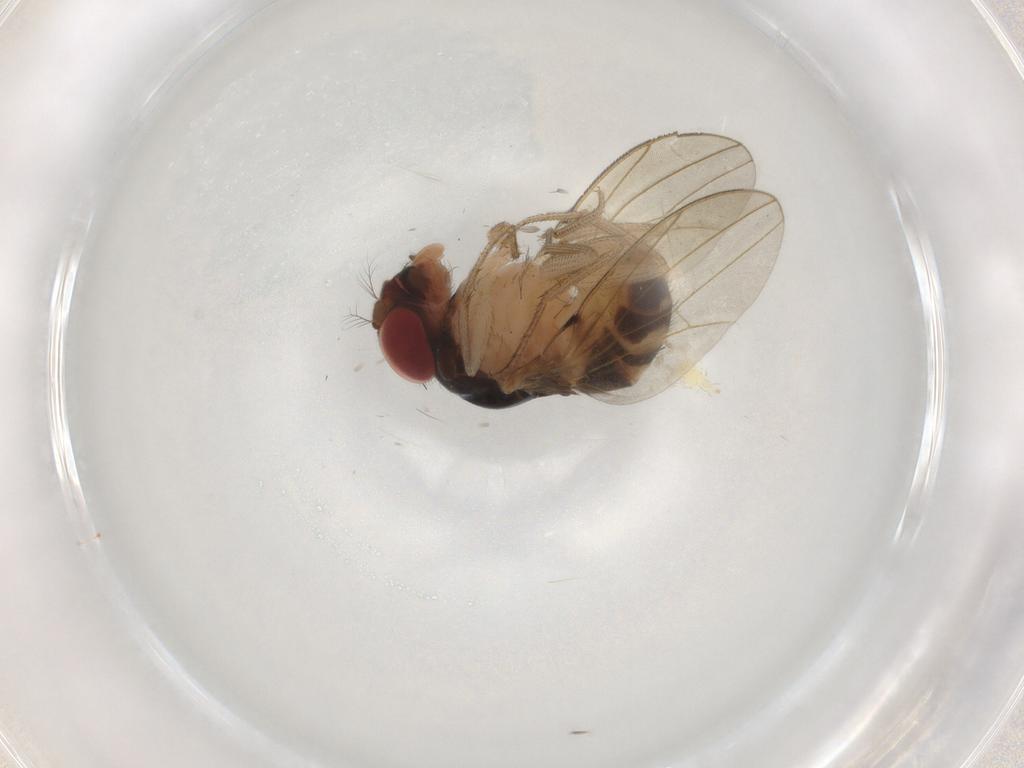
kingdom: Animalia
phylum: Arthropoda
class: Insecta
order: Diptera
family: Drosophilidae
